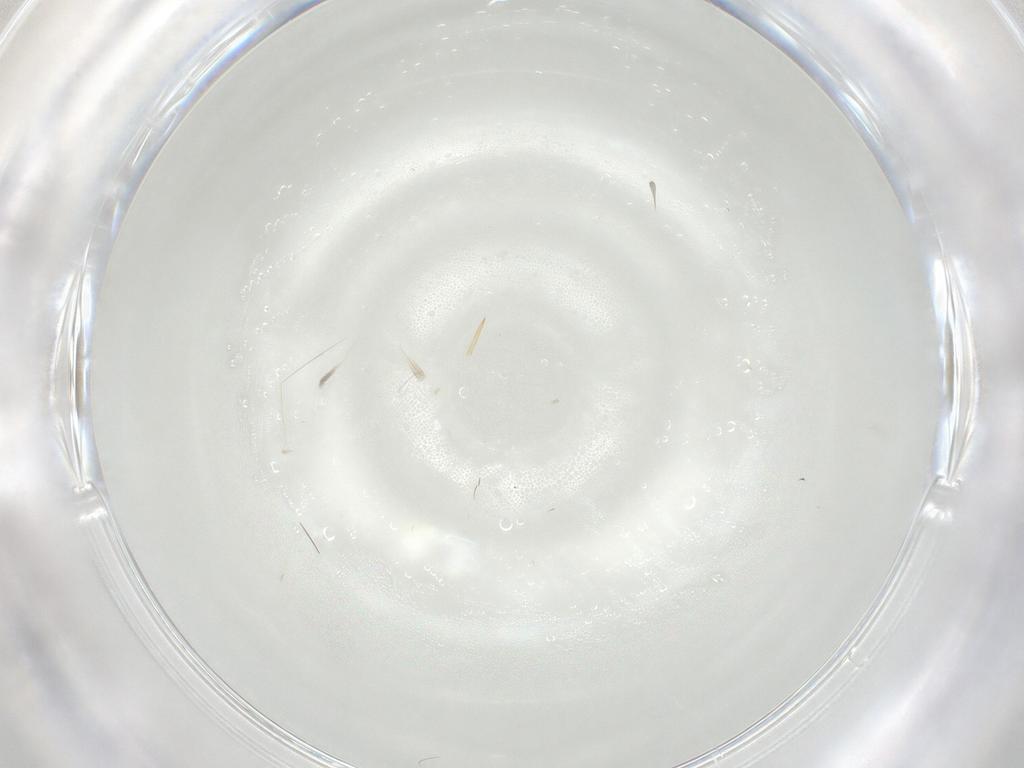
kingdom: Animalia
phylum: Arthropoda
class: Insecta
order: Hymenoptera
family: Platygastridae
